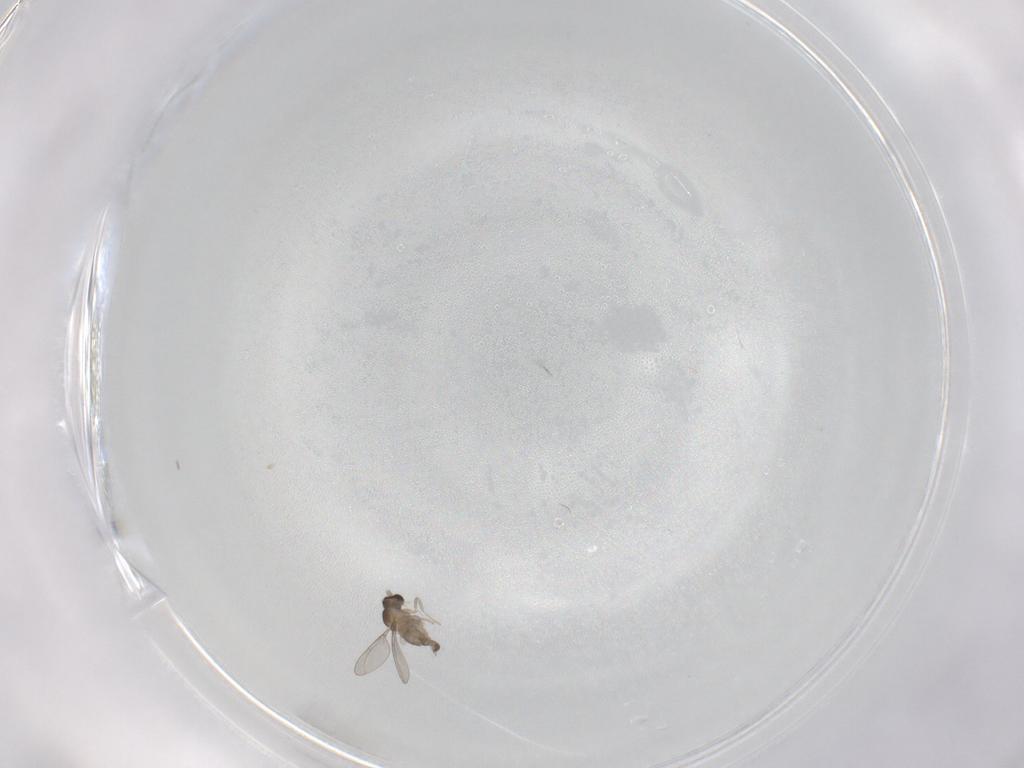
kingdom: Animalia
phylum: Arthropoda
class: Insecta
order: Diptera
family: Cecidomyiidae
